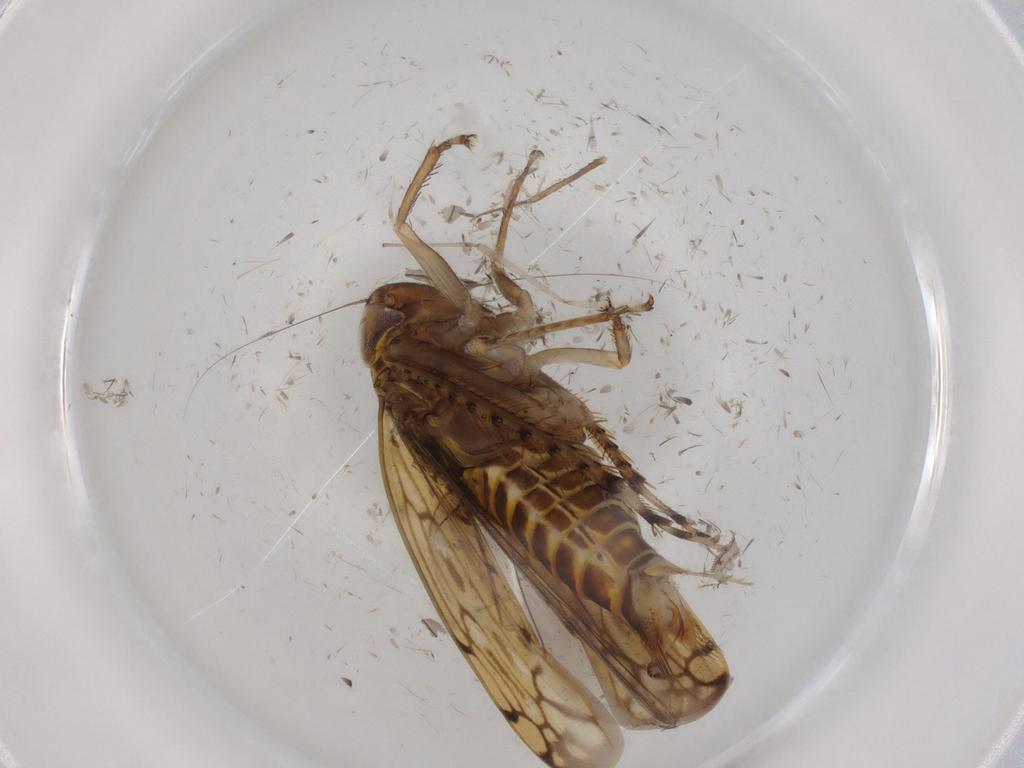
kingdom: Animalia
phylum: Arthropoda
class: Insecta
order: Hemiptera
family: Cicadellidae
